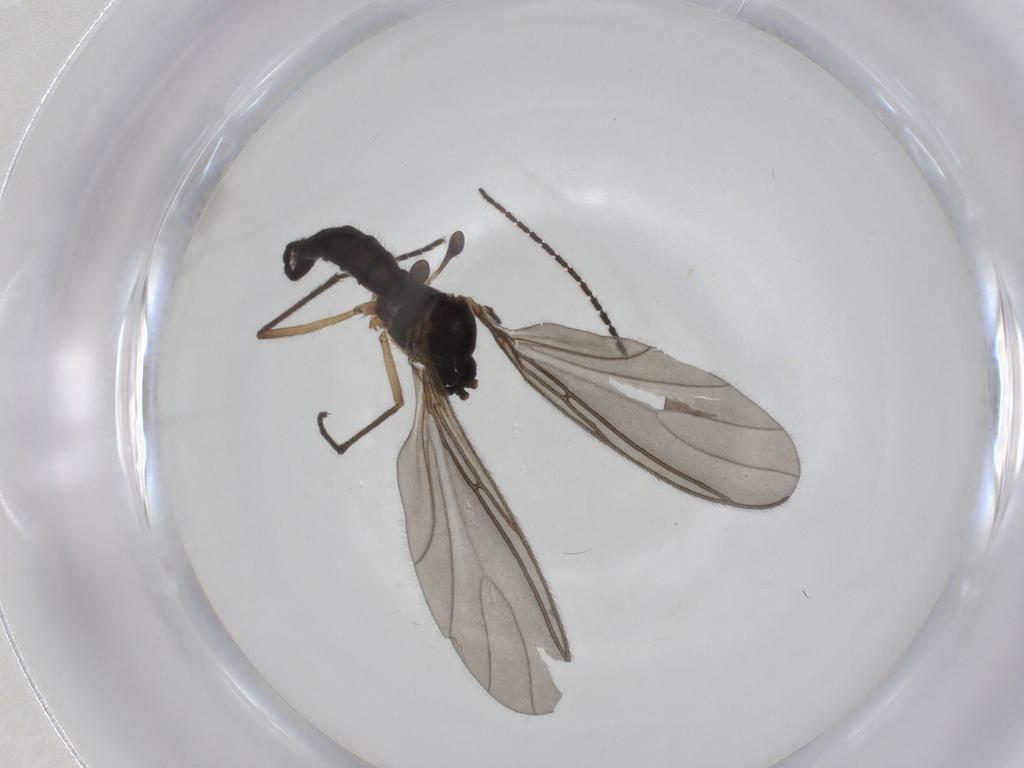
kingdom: Animalia
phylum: Arthropoda
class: Insecta
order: Diptera
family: Sciaridae
